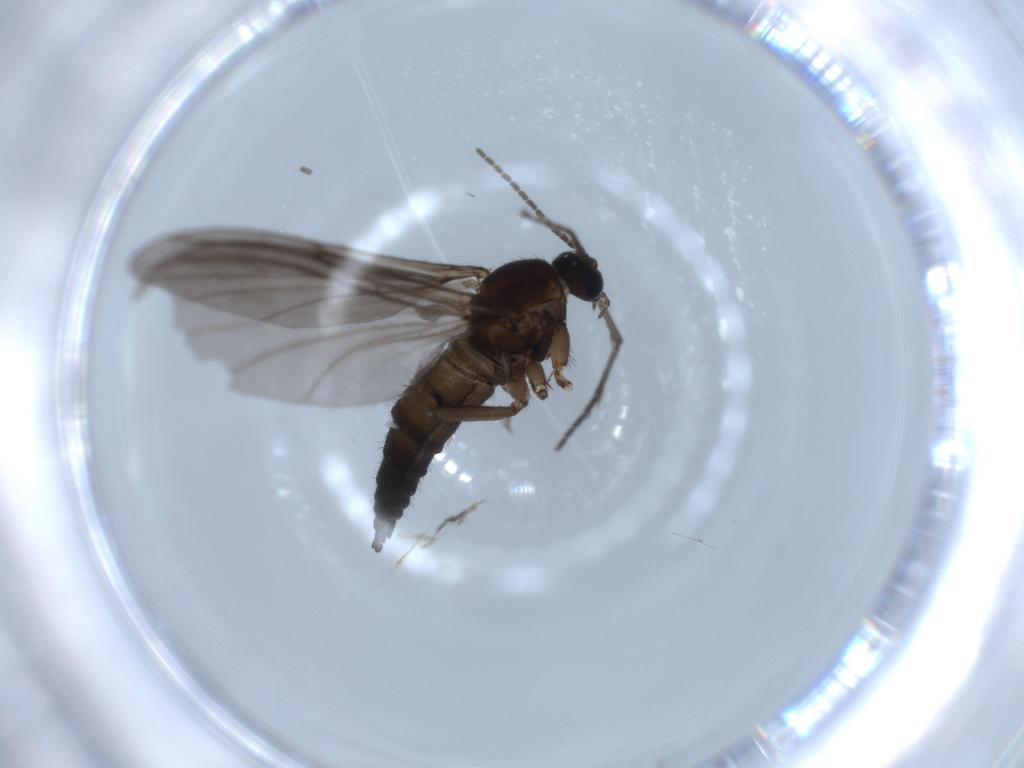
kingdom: Animalia
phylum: Arthropoda
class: Insecta
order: Diptera
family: Sciaridae
